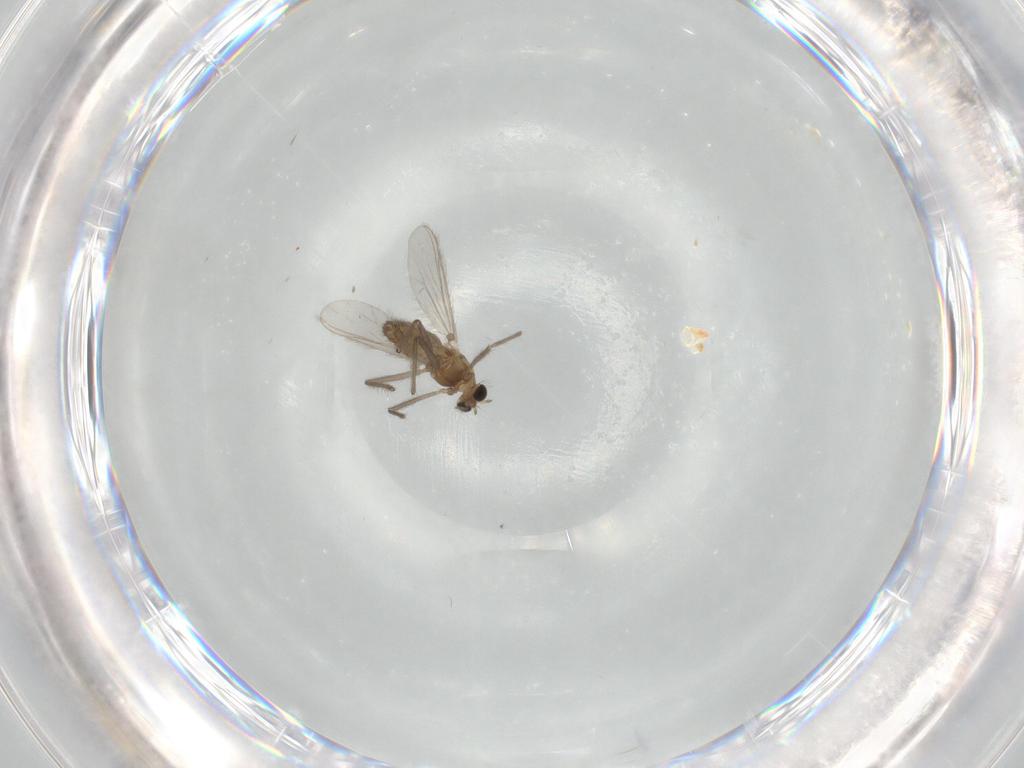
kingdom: Animalia
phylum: Arthropoda
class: Insecta
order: Diptera
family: Chironomidae
